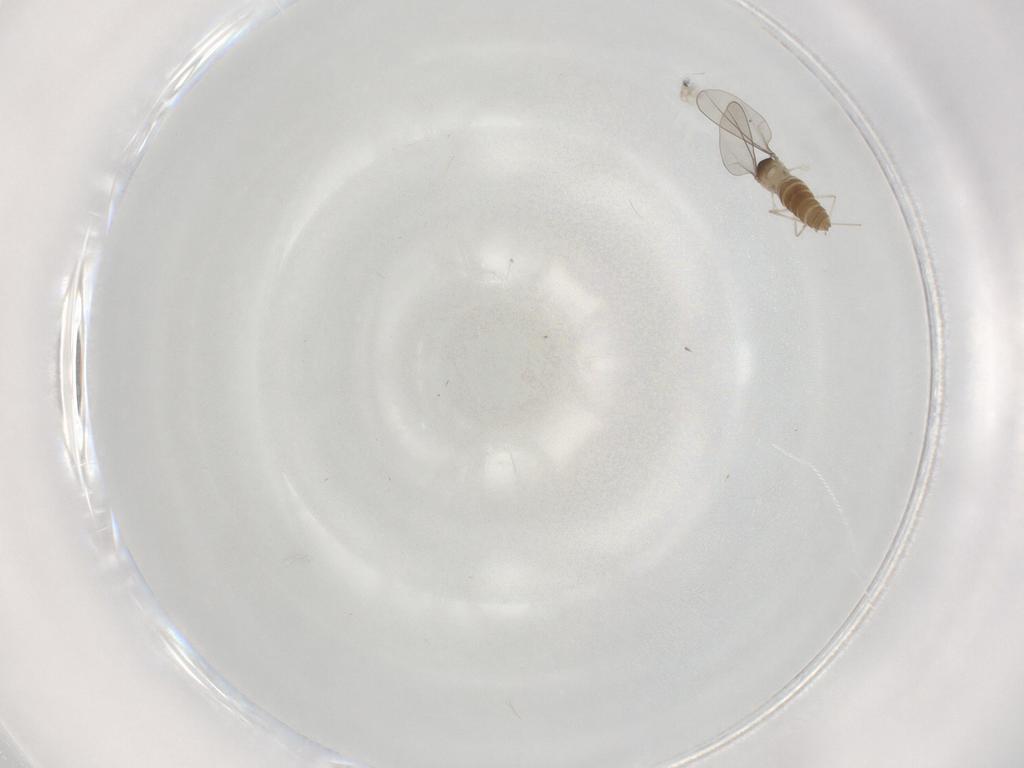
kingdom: Animalia
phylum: Arthropoda
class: Insecta
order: Diptera
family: Cecidomyiidae
